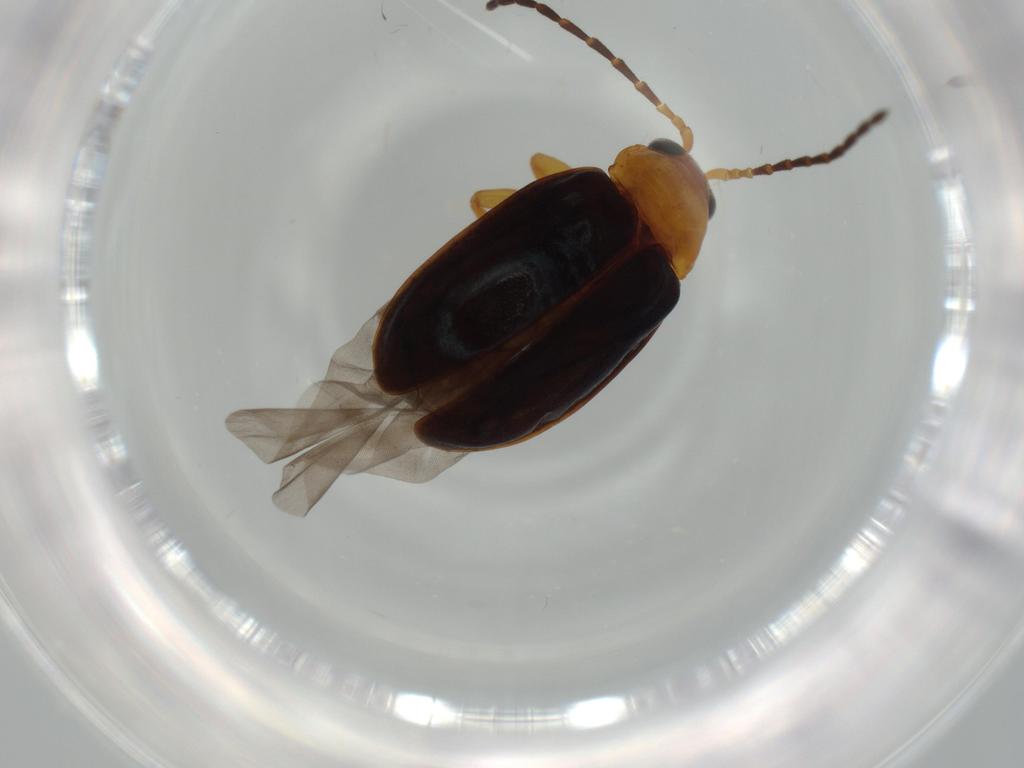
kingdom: Animalia
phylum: Arthropoda
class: Insecta
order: Coleoptera
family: Chrysomelidae
